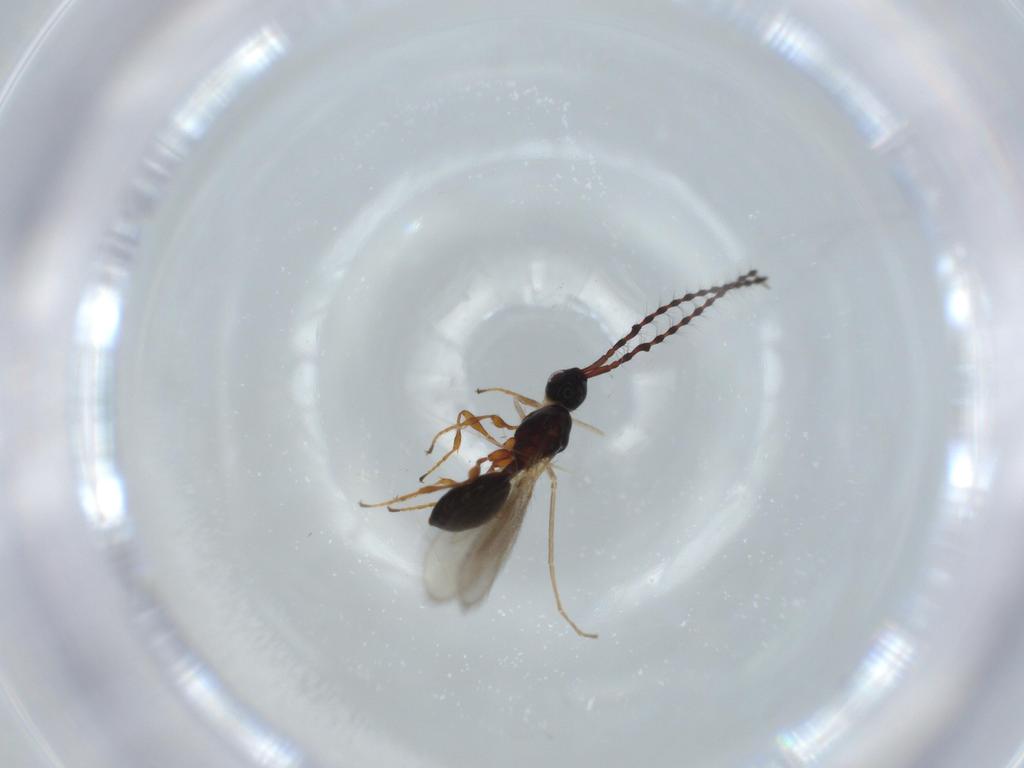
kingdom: Animalia
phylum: Arthropoda
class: Insecta
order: Hymenoptera
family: Diapriidae
